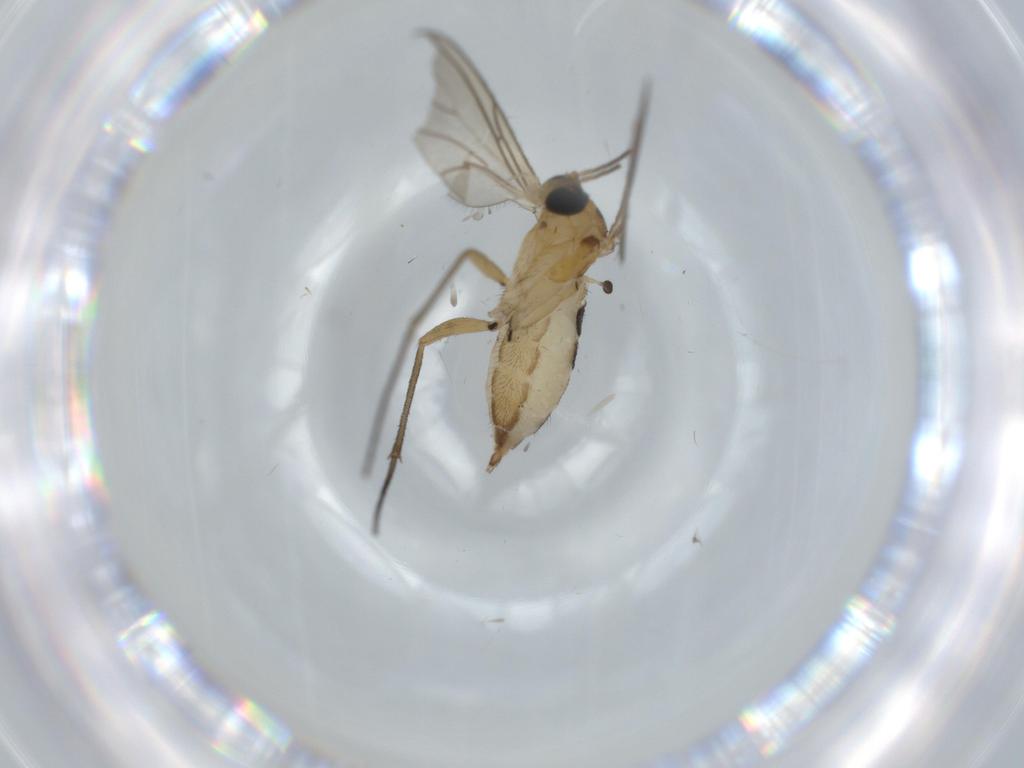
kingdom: Animalia
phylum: Arthropoda
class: Insecta
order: Diptera
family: Sciaridae
